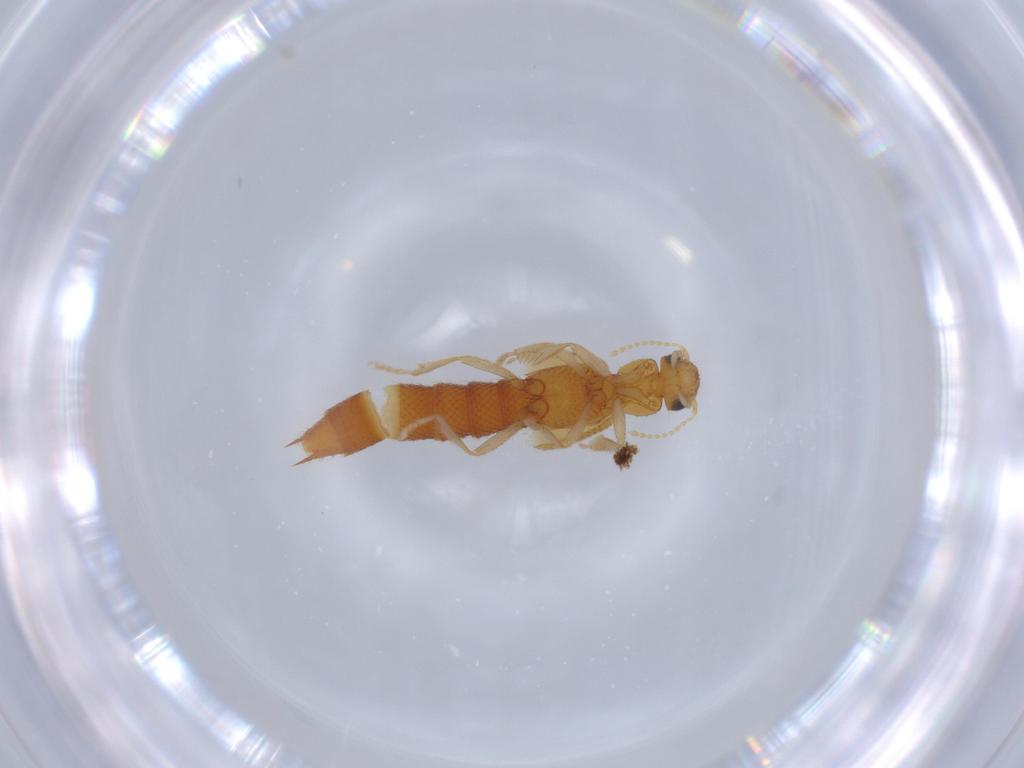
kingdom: Animalia
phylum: Arthropoda
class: Insecta
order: Coleoptera
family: Staphylinidae
